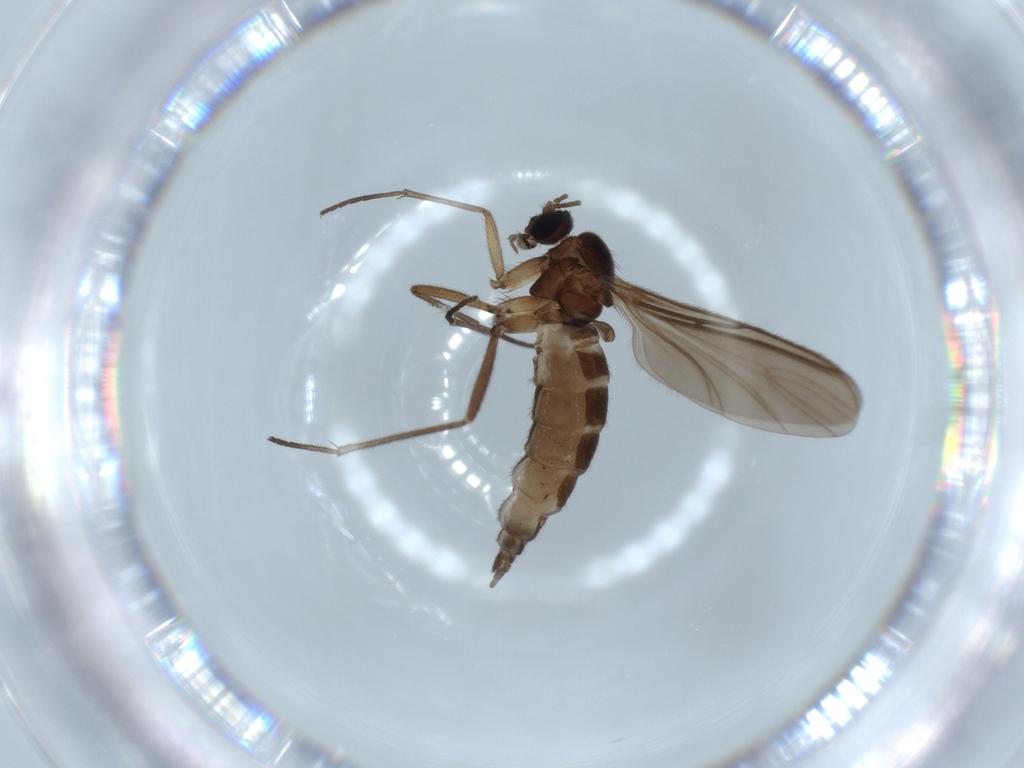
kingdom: Animalia
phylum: Arthropoda
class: Insecta
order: Diptera
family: Sciaridae
